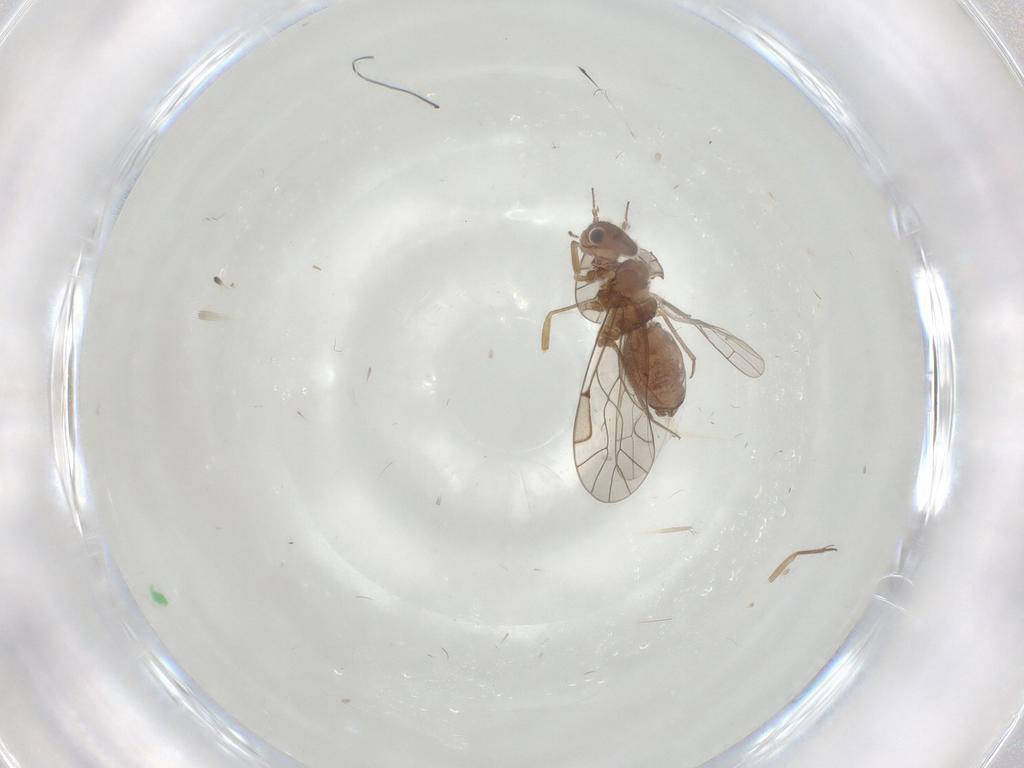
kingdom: Animalia
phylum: Arthropoda
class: Insecta
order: Psocodea
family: Lachesillidae
